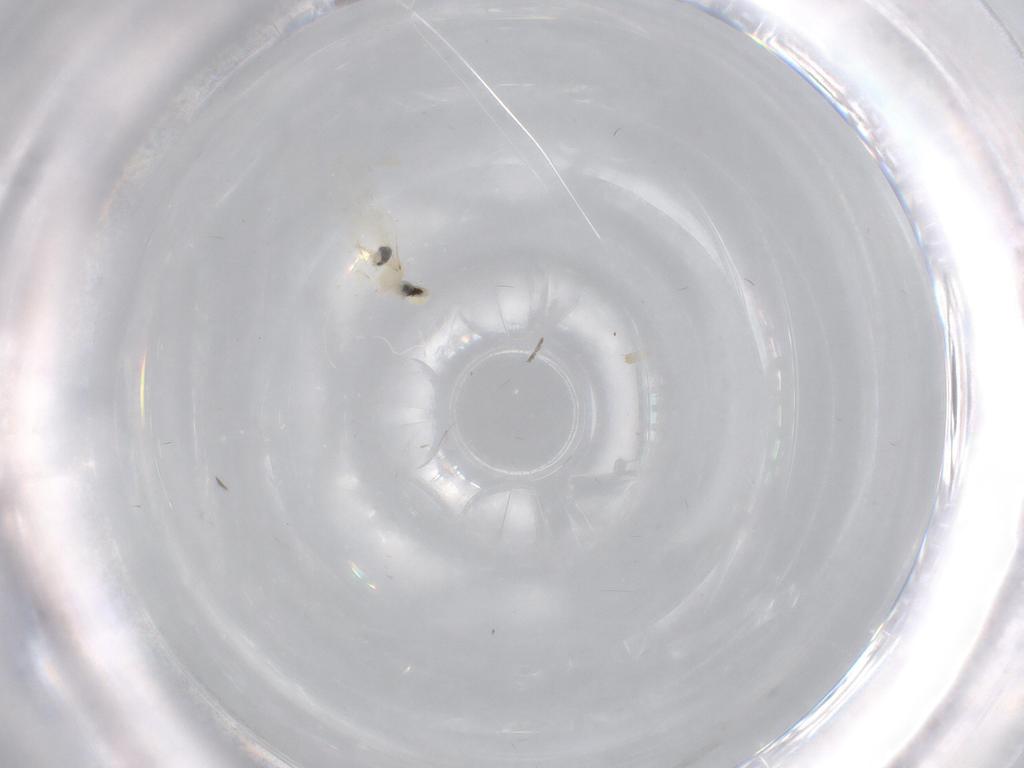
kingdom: Animalia
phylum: Arthropoda
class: Insecta
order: Diptera
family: Cecidomyiidae
